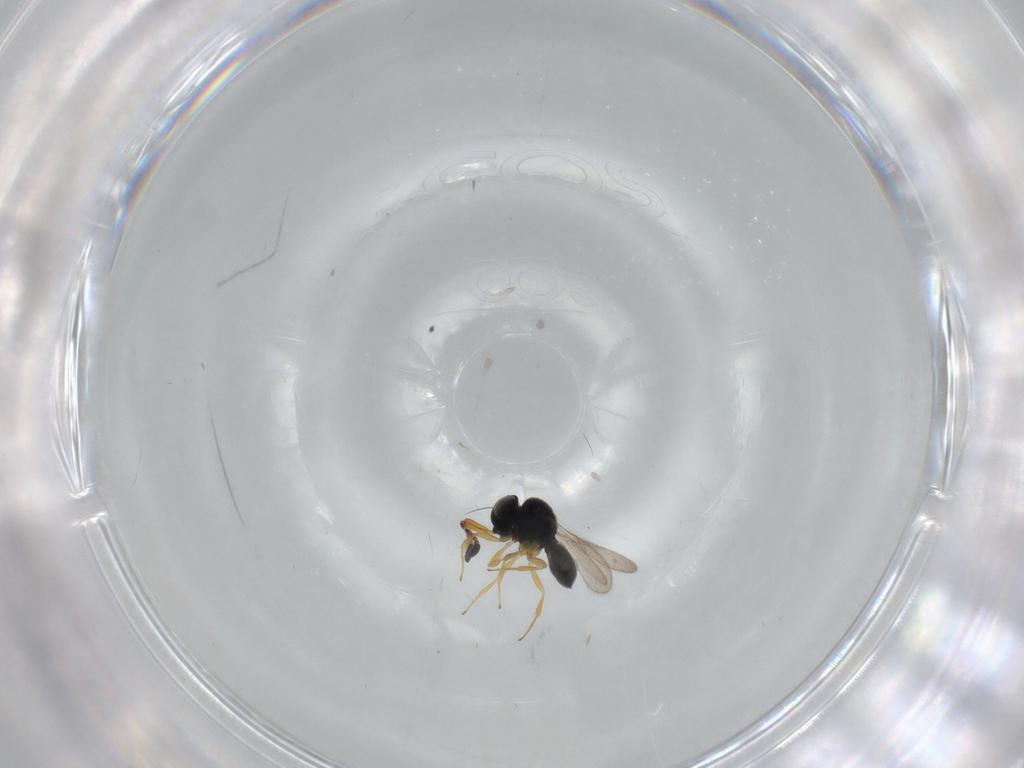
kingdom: Animalia
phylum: Arthropoda
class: Insecta
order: Hymenoptera
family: Scelionidae
